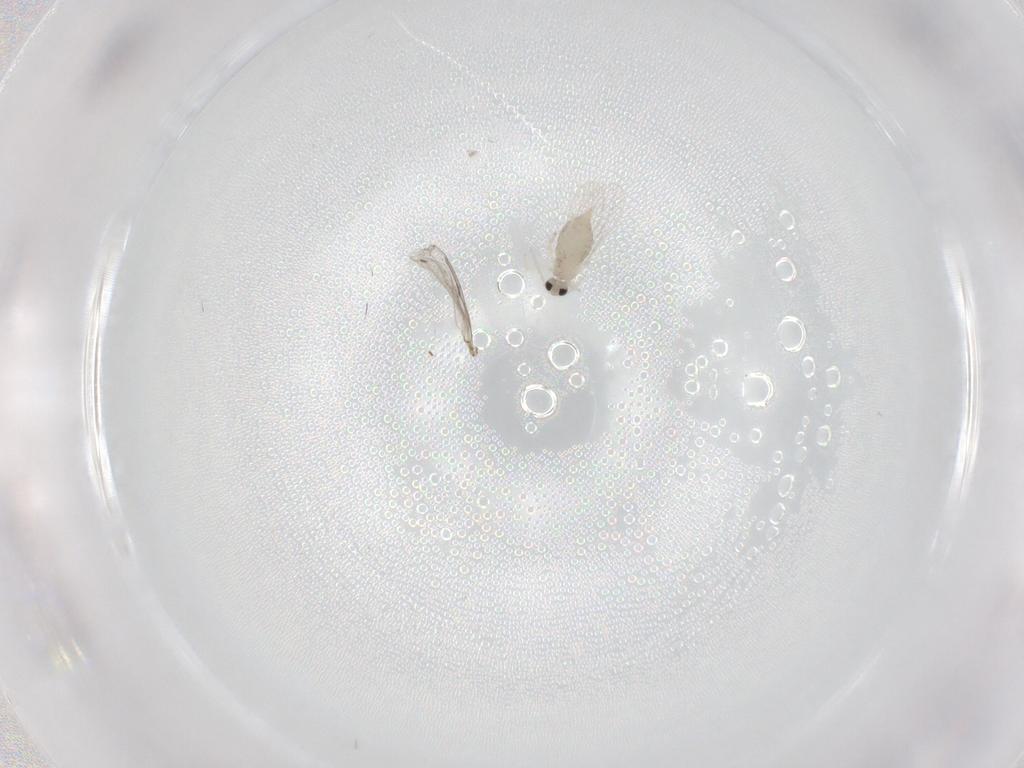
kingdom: Animalia
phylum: Arthropoda
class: Insecta
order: Diptera
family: Cecidomyiidae
